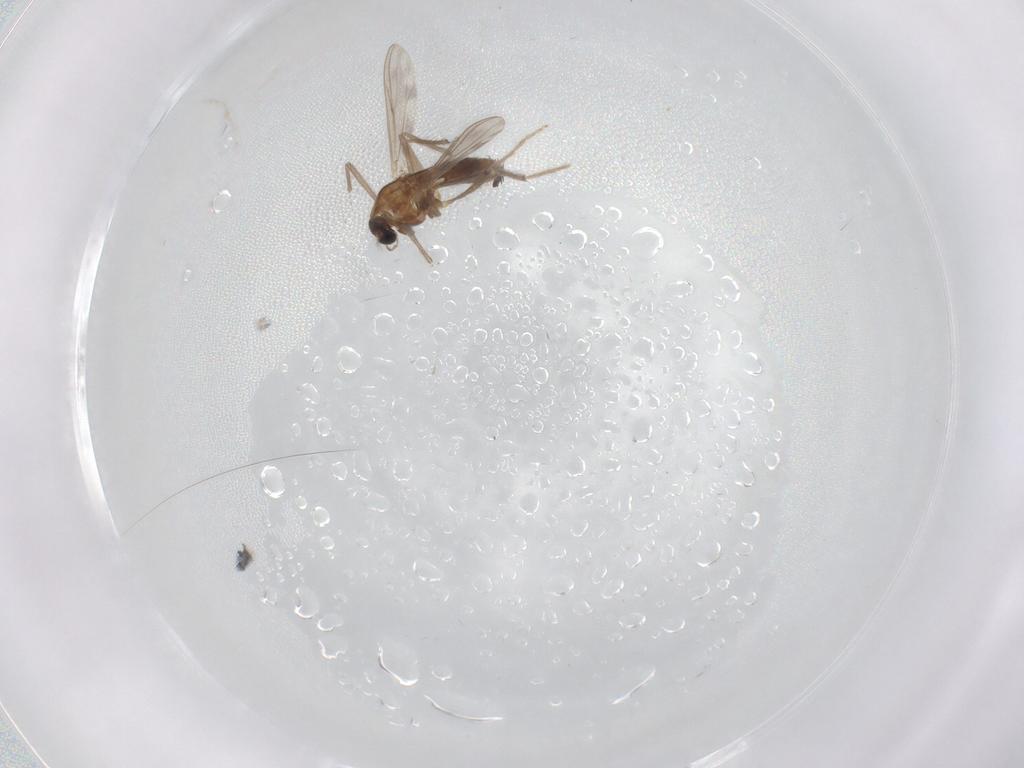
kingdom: Animalia
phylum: Arthropoda
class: Insecta
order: Diptera
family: Chironomidae
